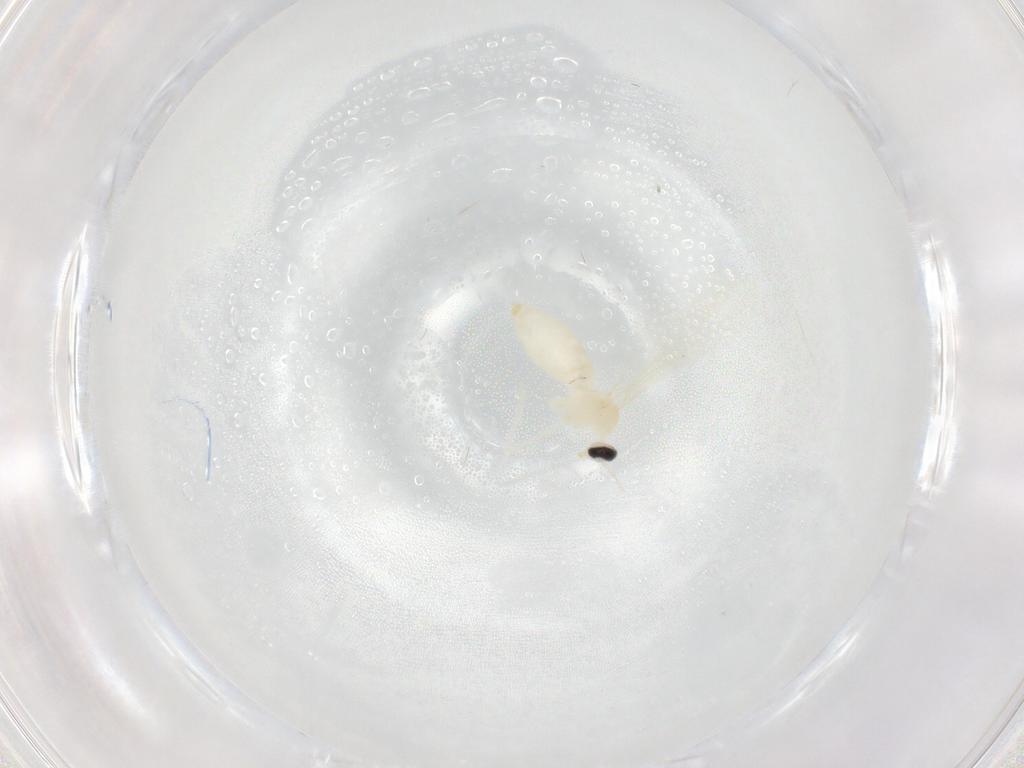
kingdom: Animalia
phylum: Arthropoda
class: Insecta
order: Diptera
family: Cecidomyiidae
